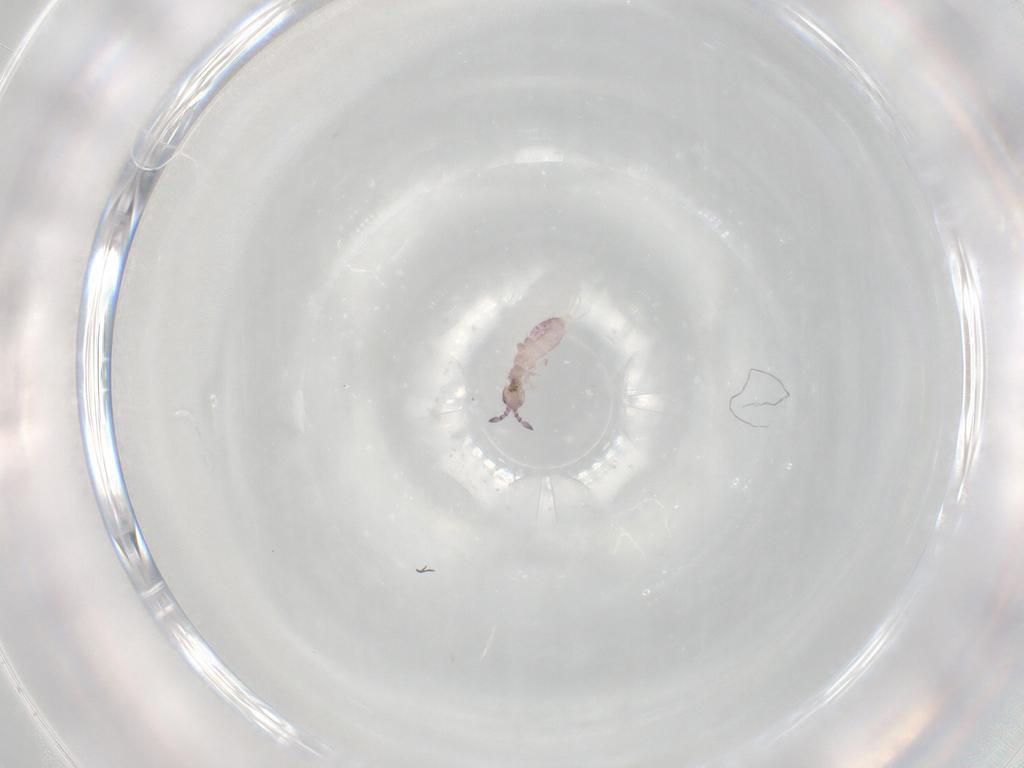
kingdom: Animalia
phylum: Arthropoda
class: Collembola
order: Entomobryomorpha
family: Isotomidae
